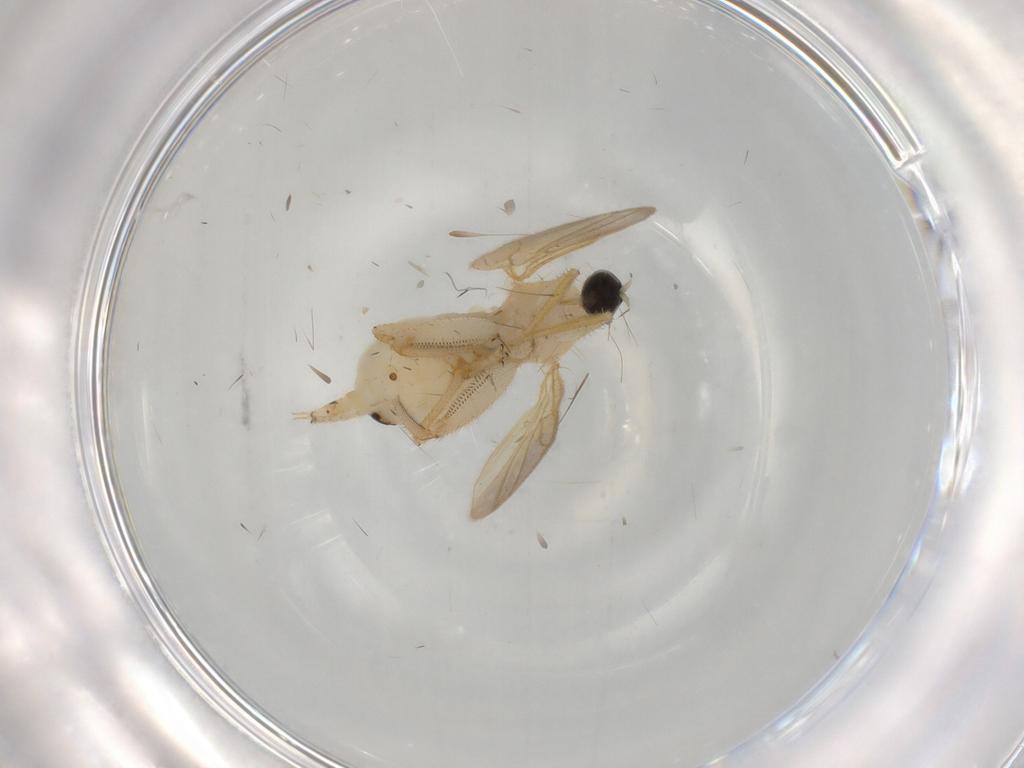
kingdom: Animalia
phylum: Arthropoda
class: Insecta
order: Diptera
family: Hybotidae
